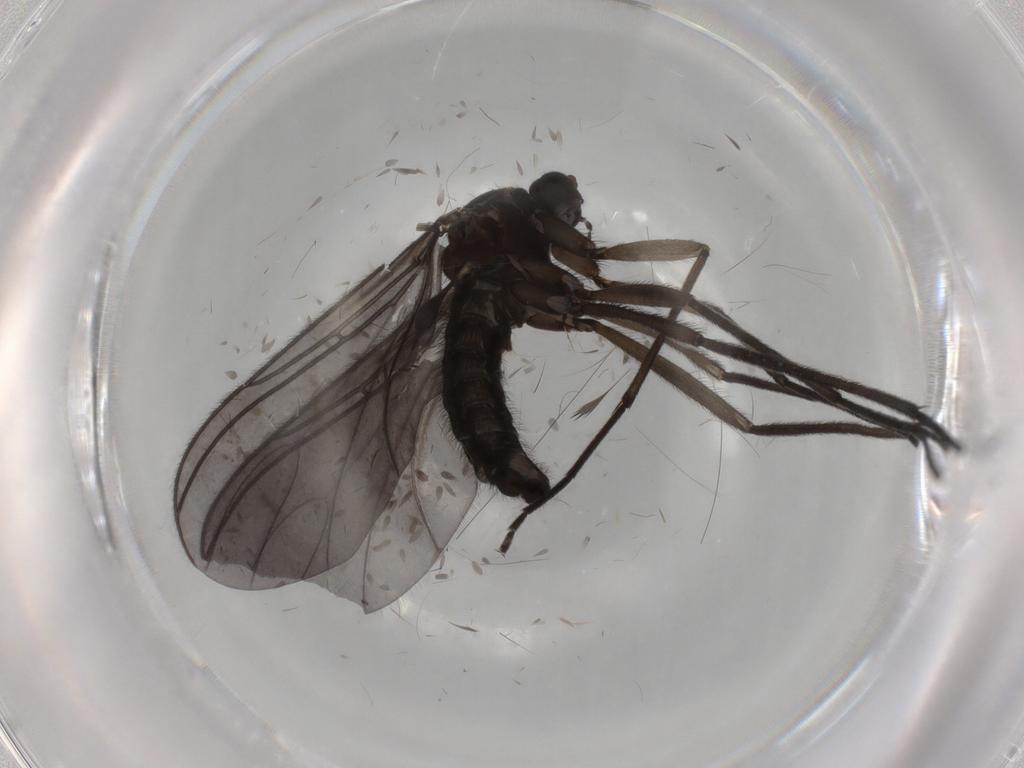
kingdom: Animalia
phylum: Arthropoda
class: Insecta
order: Diptera
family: Sciaridae
